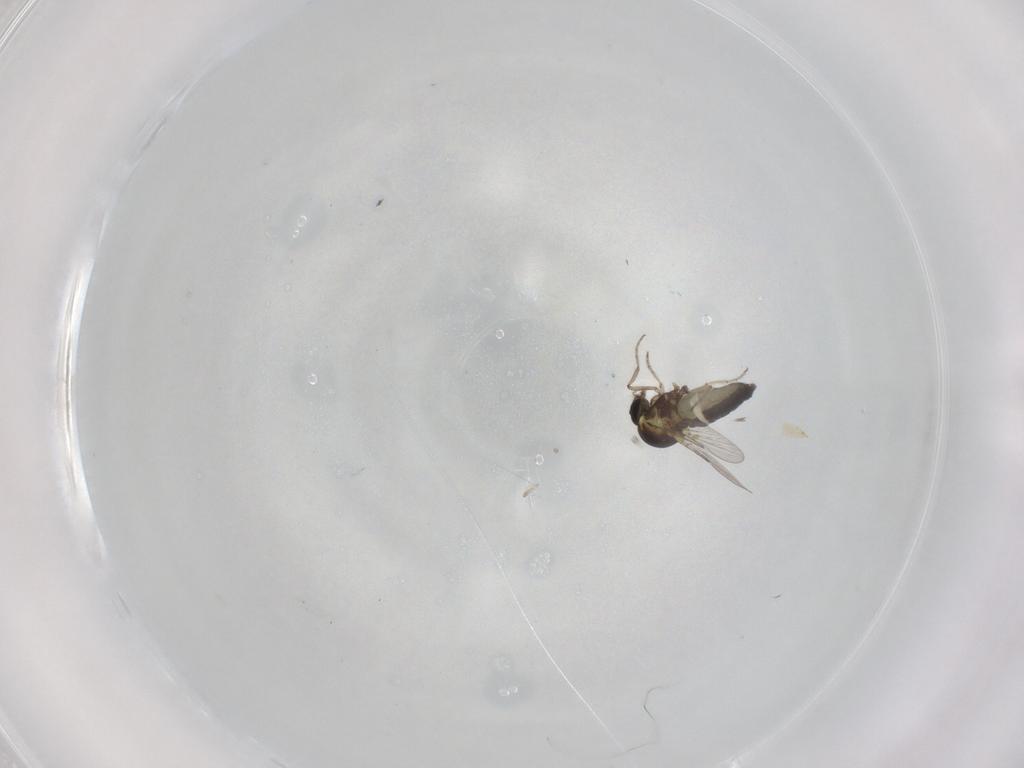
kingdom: Animalia
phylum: Arthropoda
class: Insecta
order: Diptera
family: Ceratopogonidae
